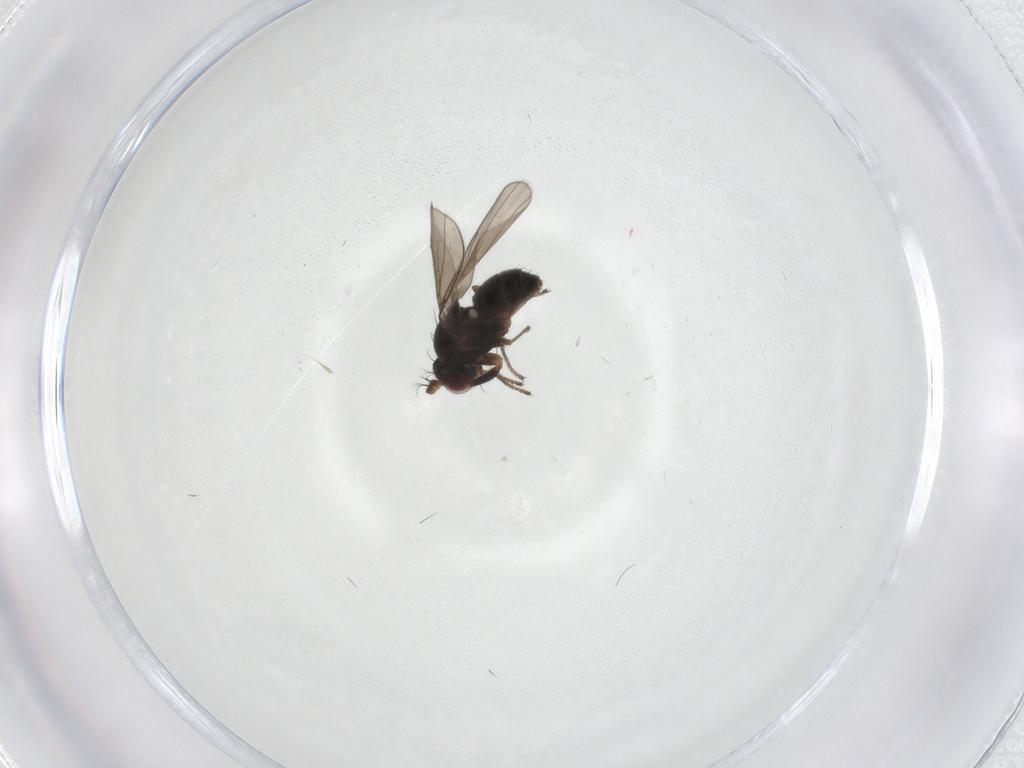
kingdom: Animalia
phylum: Arthropoda
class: Insecta
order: Diptera
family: Ephydridae
